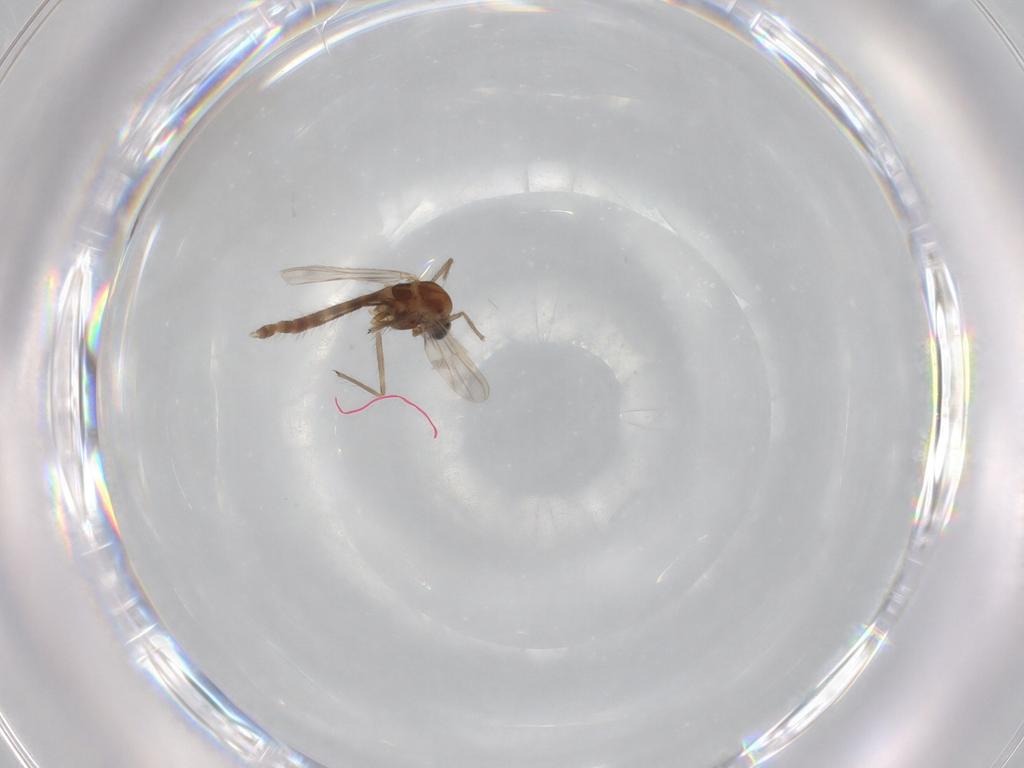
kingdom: Animalia
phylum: Arthropoda
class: Insecta
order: Diptera
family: Chironomidae
